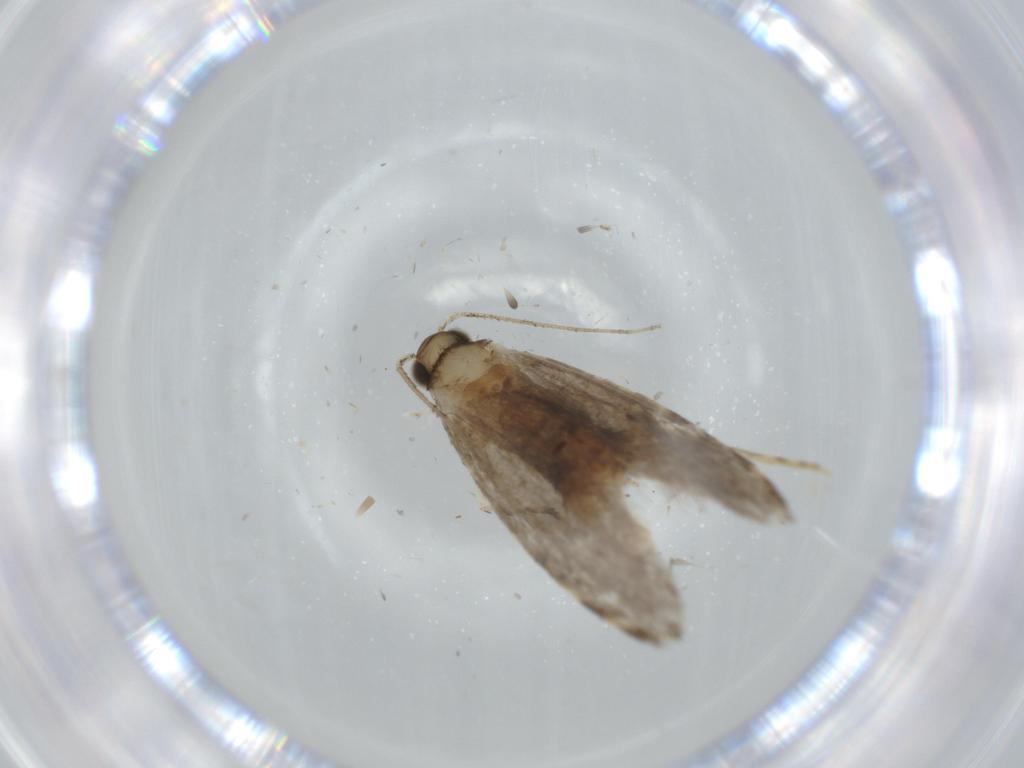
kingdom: Animalia
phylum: Arthropoda
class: Insecta
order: Lepidoptera
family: Tineidae
